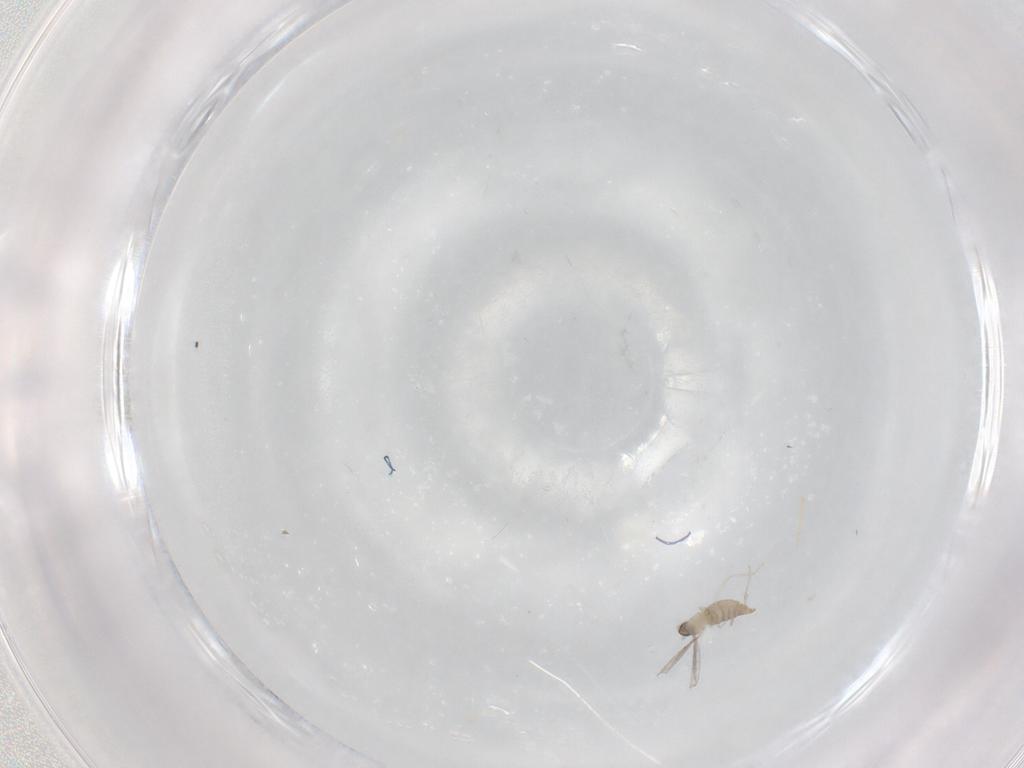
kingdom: Animalia
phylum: Arthropoda
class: Insecta
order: Diptera
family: Cecidomyiidae
